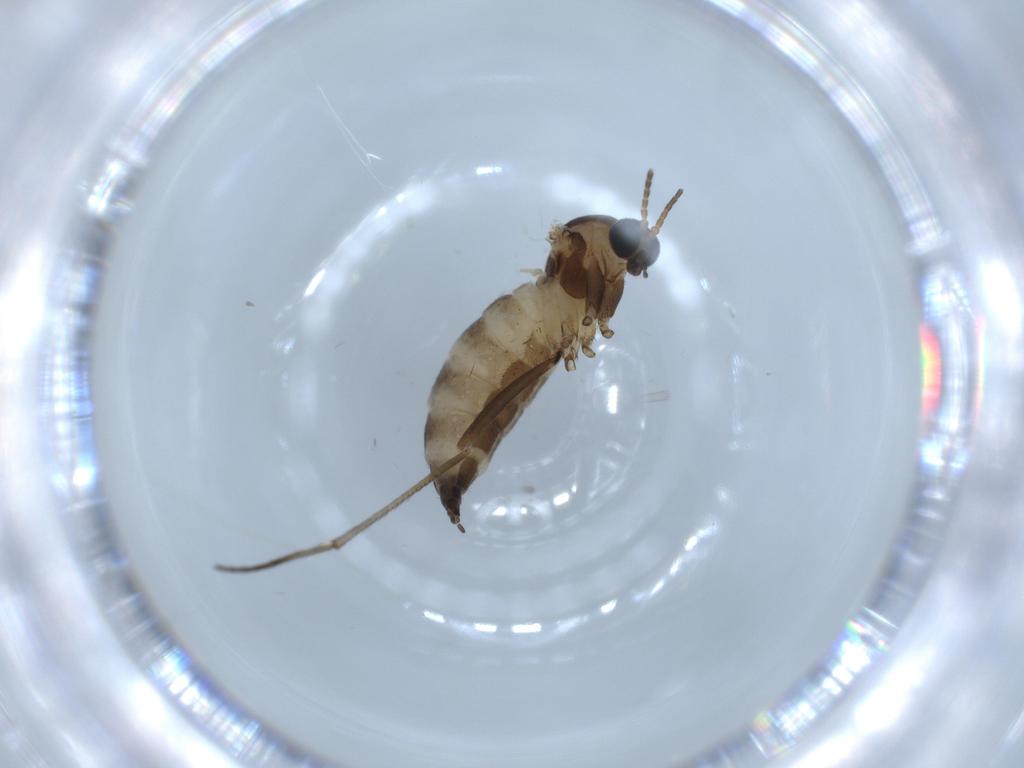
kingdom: Animalia
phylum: Arthropoda
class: Insecta
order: Diptera
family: Sciaridae
